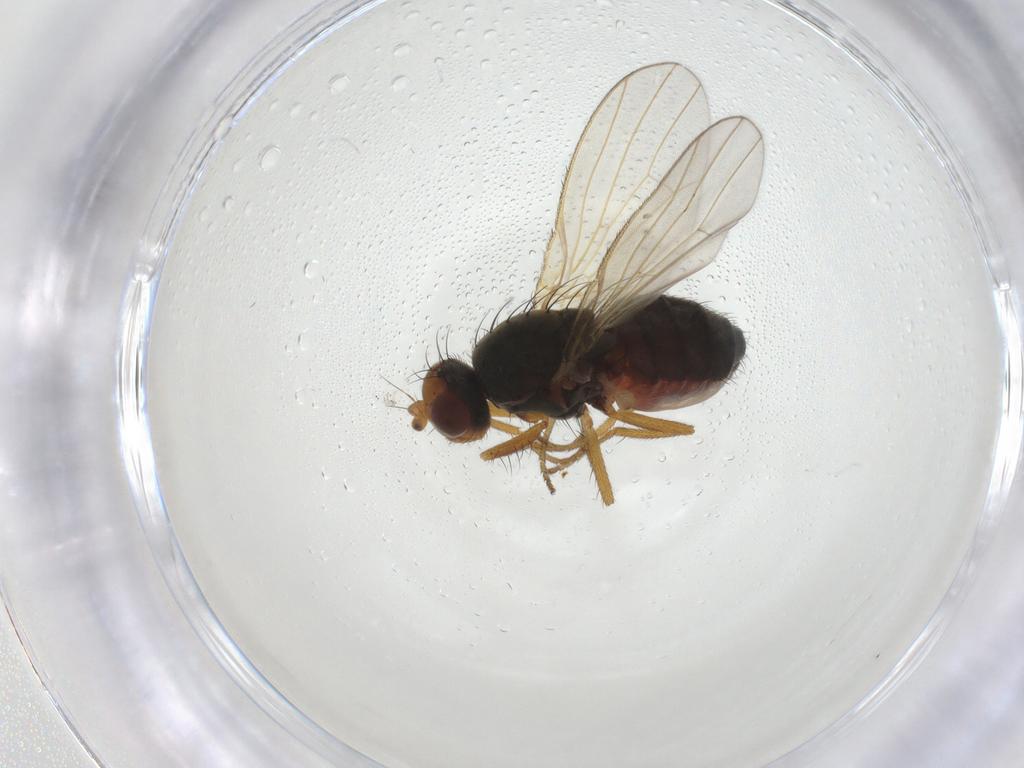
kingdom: Animalia
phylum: Arthropoda
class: Insecta
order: Diptera
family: Heleomyzidae
